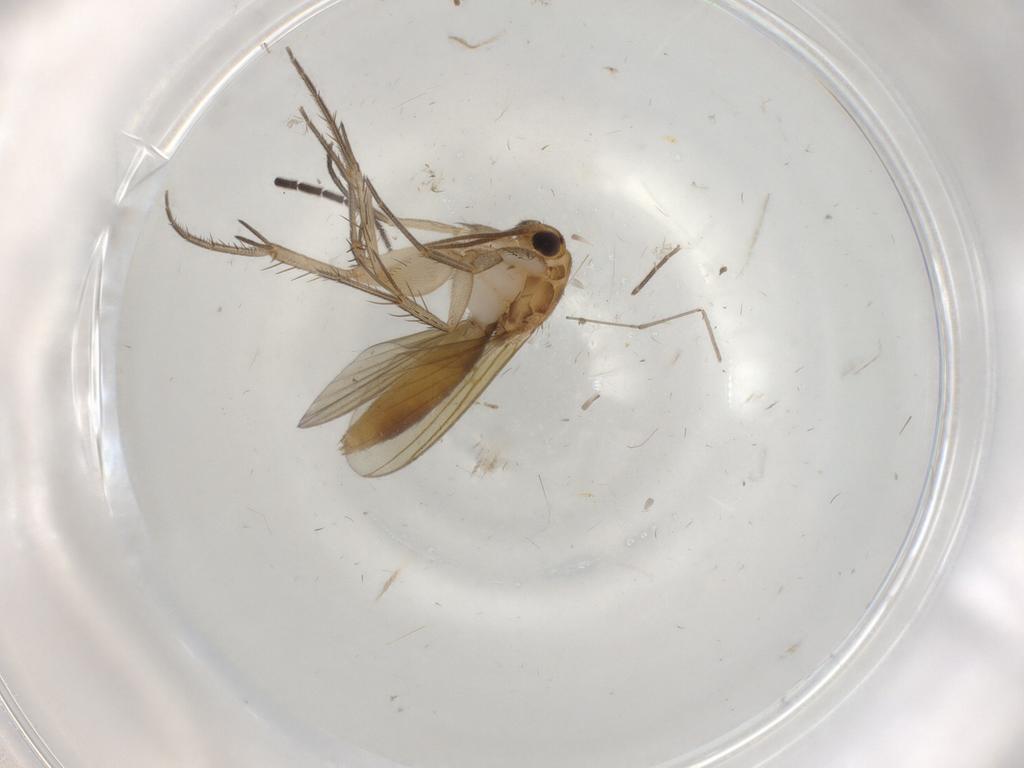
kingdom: Animalia
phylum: Arthropoda
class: Insecta
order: Diptera
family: Mycetophilidae
